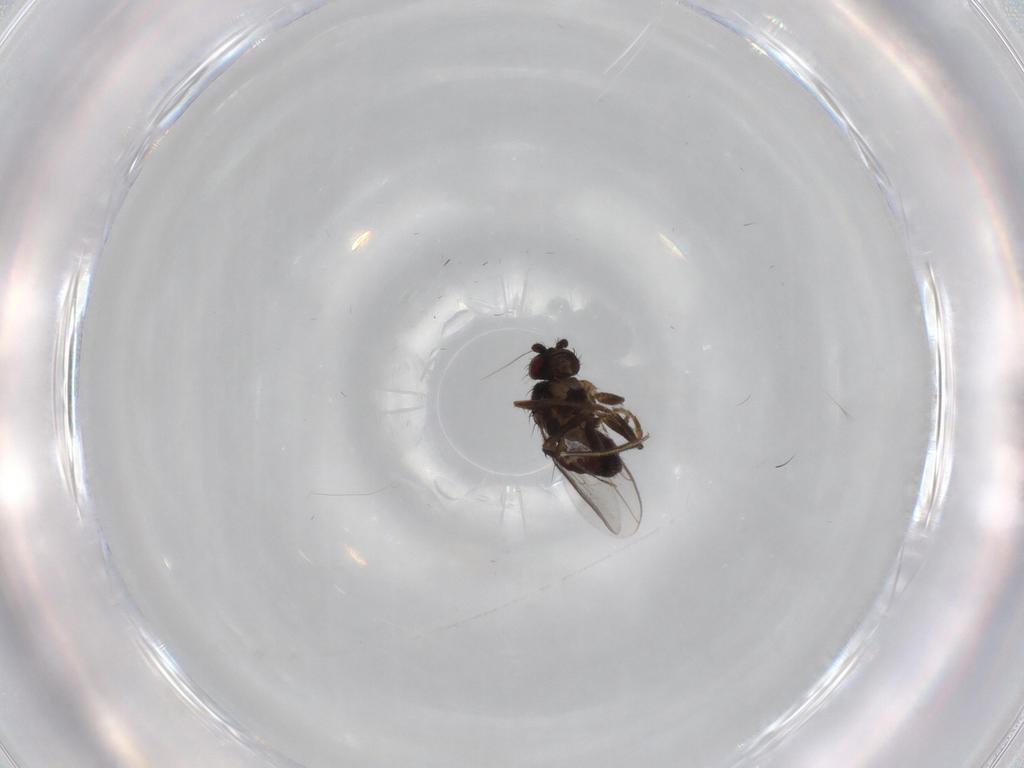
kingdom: Animalia
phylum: Arthropoda
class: Insecta
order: Diptera
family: Sphaeroceridae
